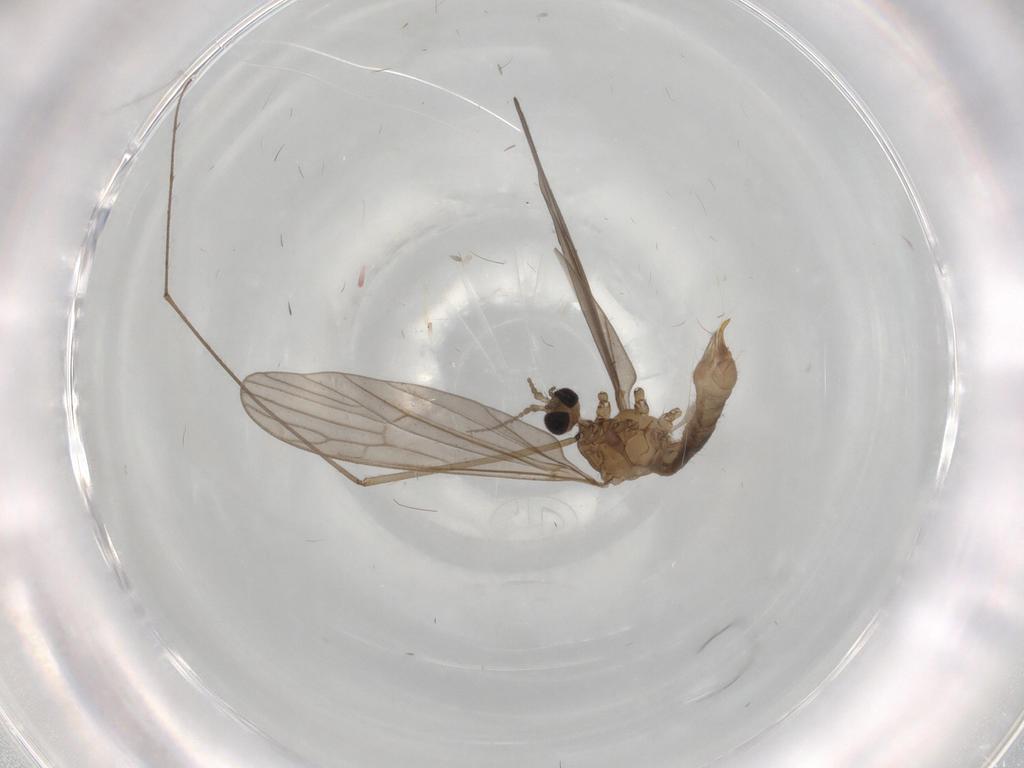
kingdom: Animalia
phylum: Arthropoda
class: Insecta
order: Diptera
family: Limoniidae
